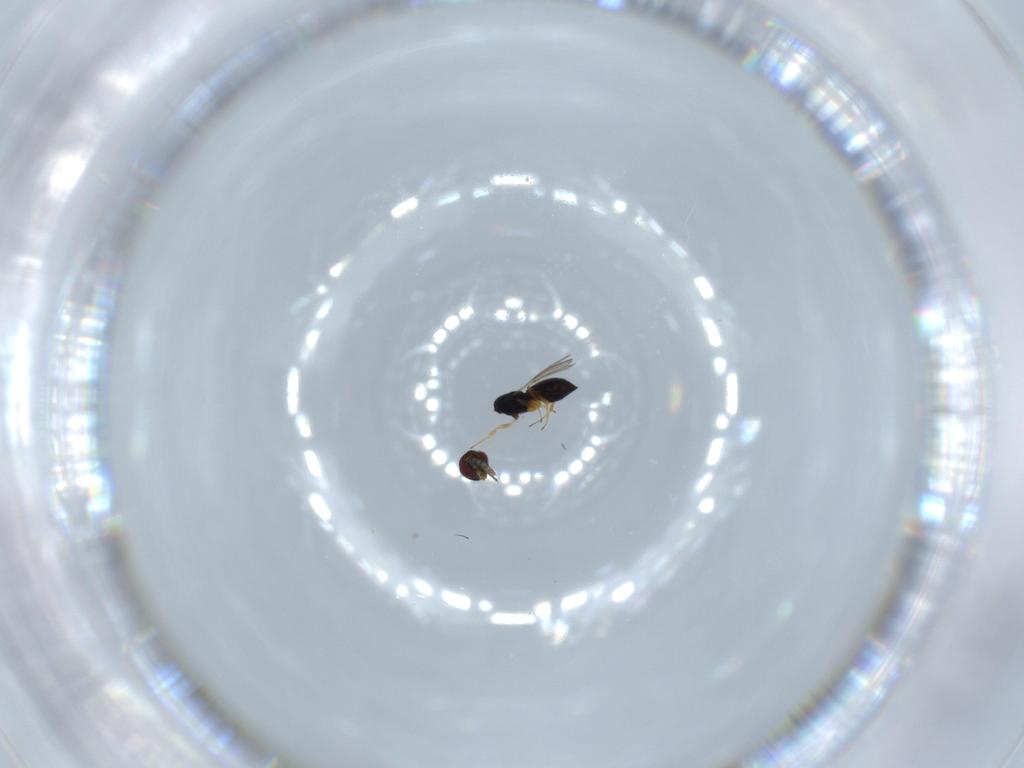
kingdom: Animalia
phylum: Arthropoda
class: Insecta
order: Hymenoptera
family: Scelionidae
